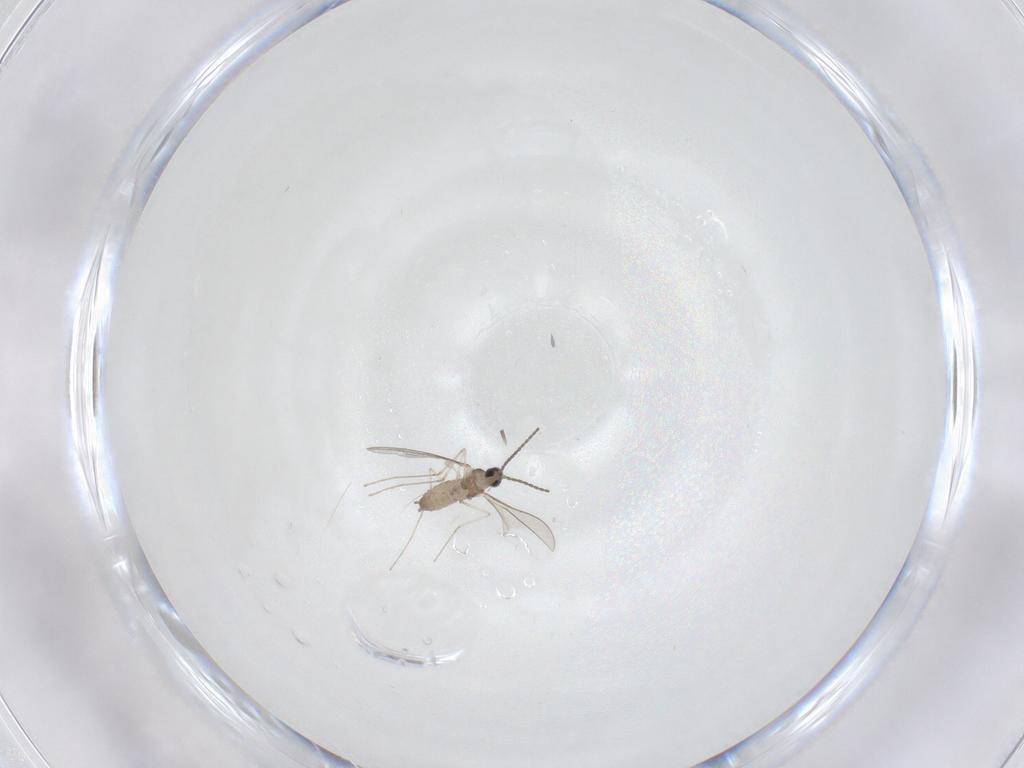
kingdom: Animalia
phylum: Arthropoda
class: Insecta
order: Diptera
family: Cecidomyiidae
